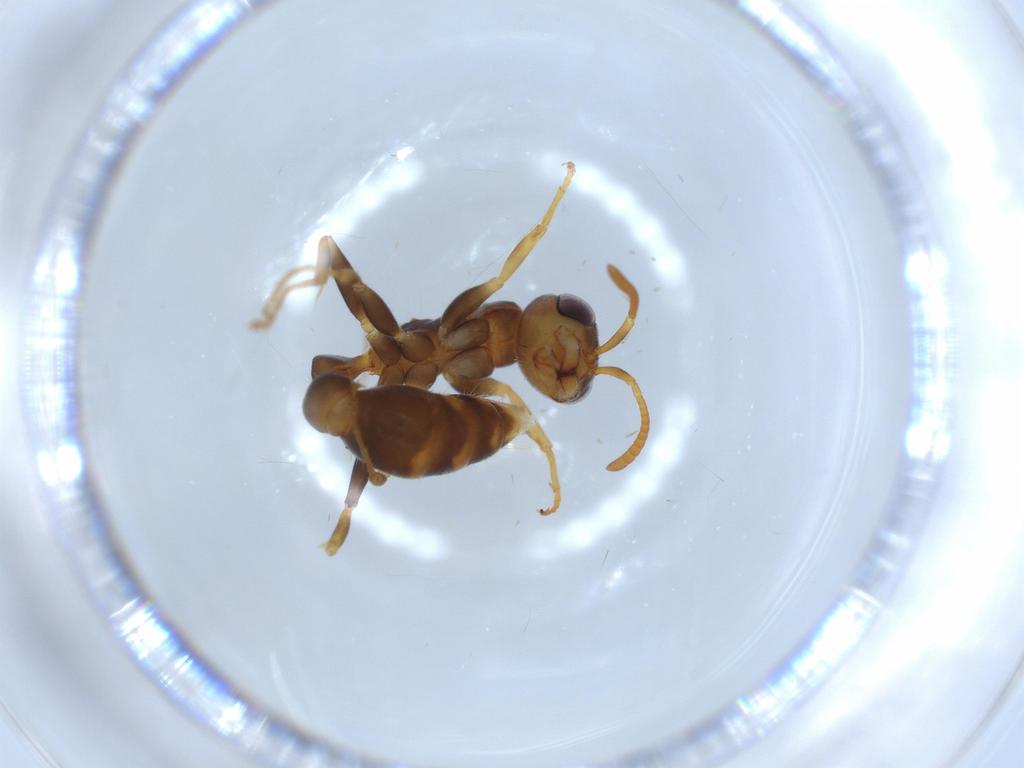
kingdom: Animalia
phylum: Arthropoda
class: Insecta
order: Hymenoptera
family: Formicidae
